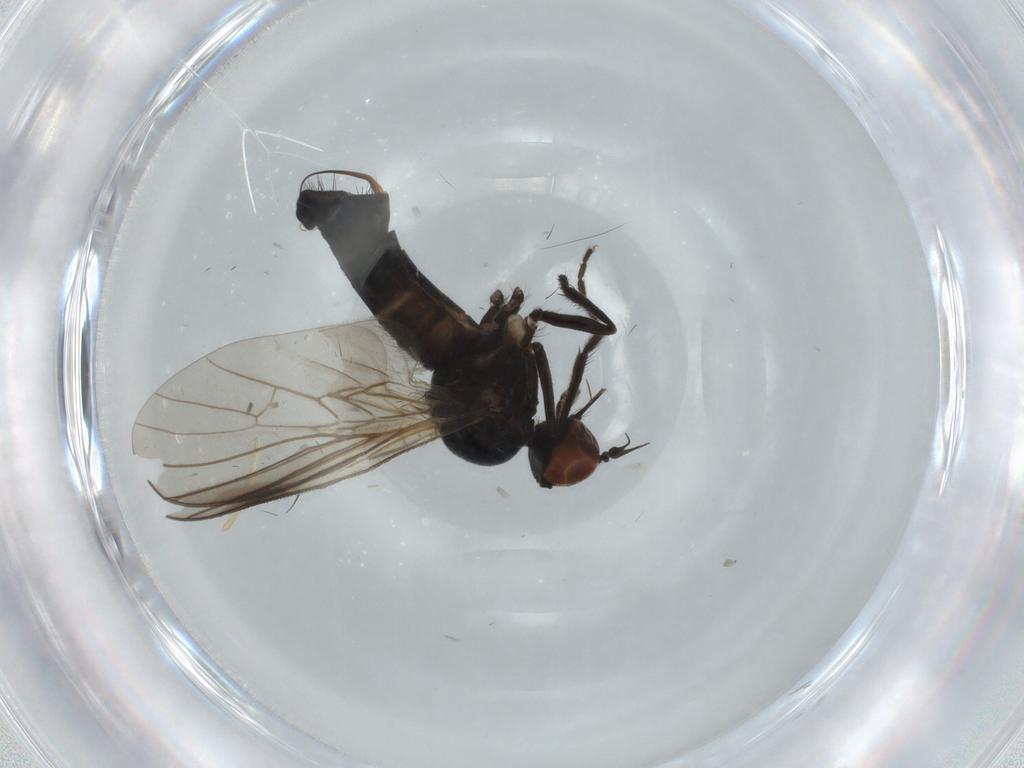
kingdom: Animalia
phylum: Arthropoda
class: Insecta
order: Diptera
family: Empididae
